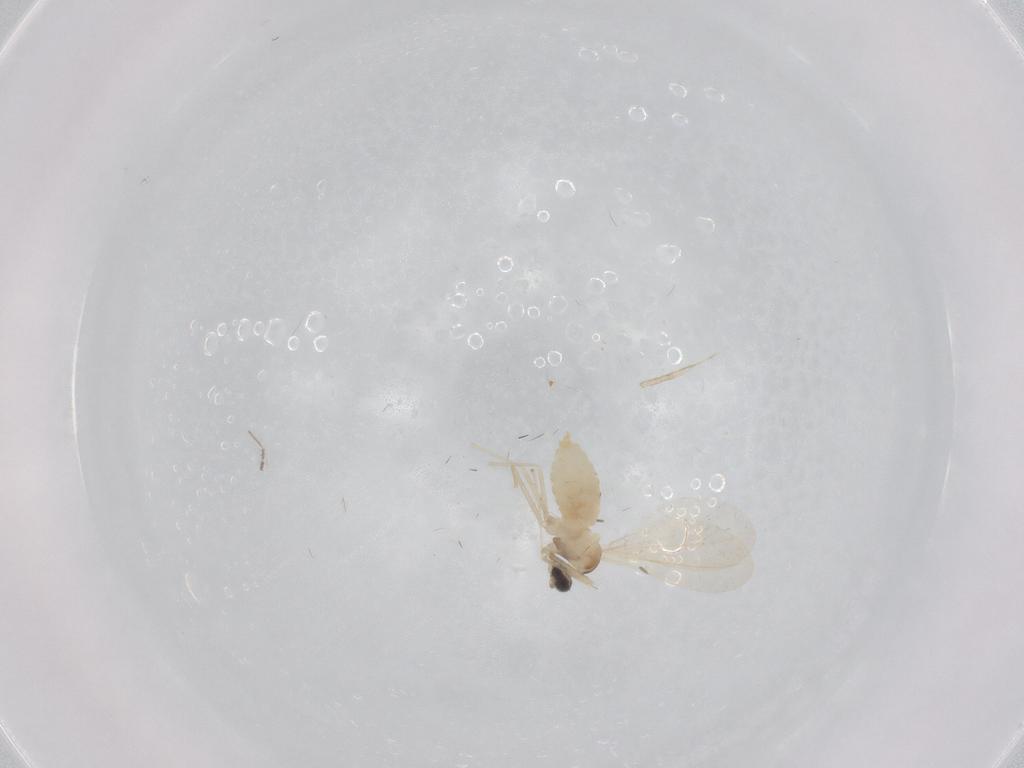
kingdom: Animalia
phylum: Arthropoda
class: Insecta
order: Diptera
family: Cecidomyiidae
